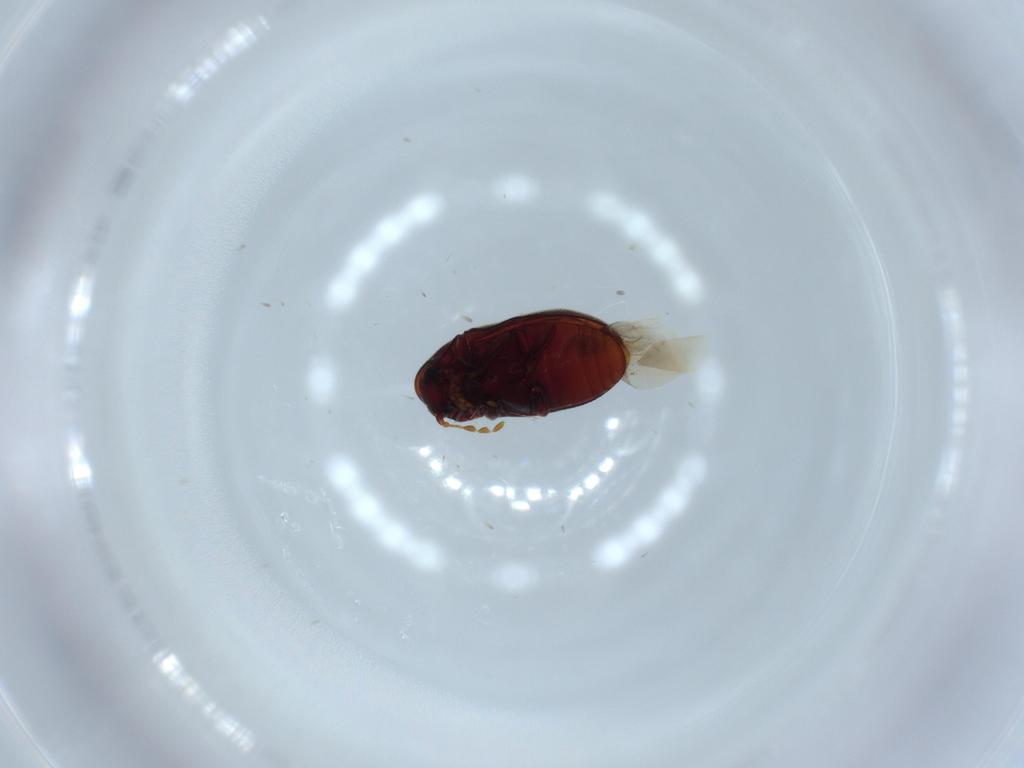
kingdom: Animalia
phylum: Arthropoda
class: Insecta
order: Coleoptera
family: Ptinidae
